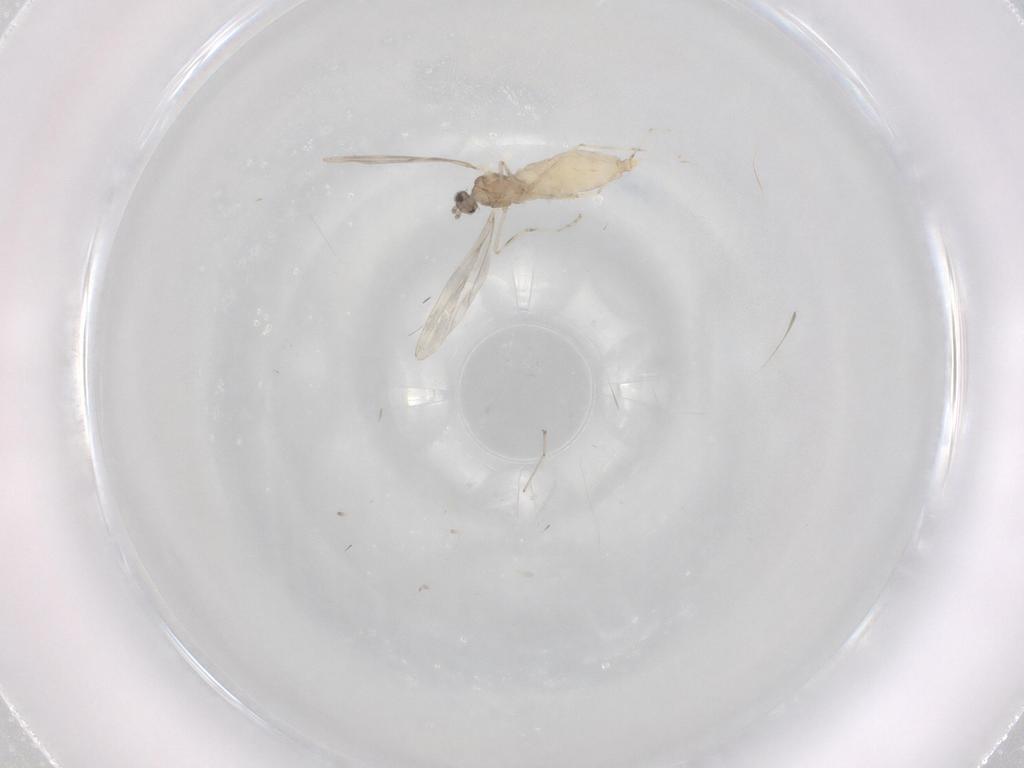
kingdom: Animalia
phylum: Arthropoda
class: Insecta
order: Diptera
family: Cecidomyiidae
